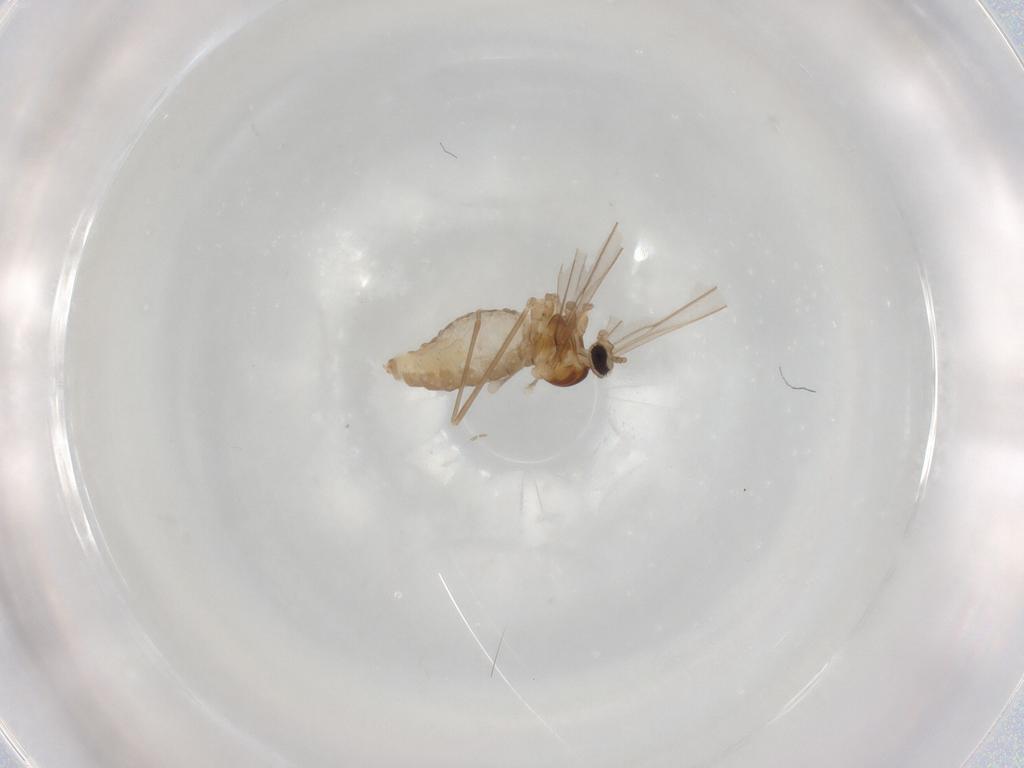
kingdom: Animalia
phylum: Arthropoda
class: Insecta
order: Diptera
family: Cecidomyiidae
